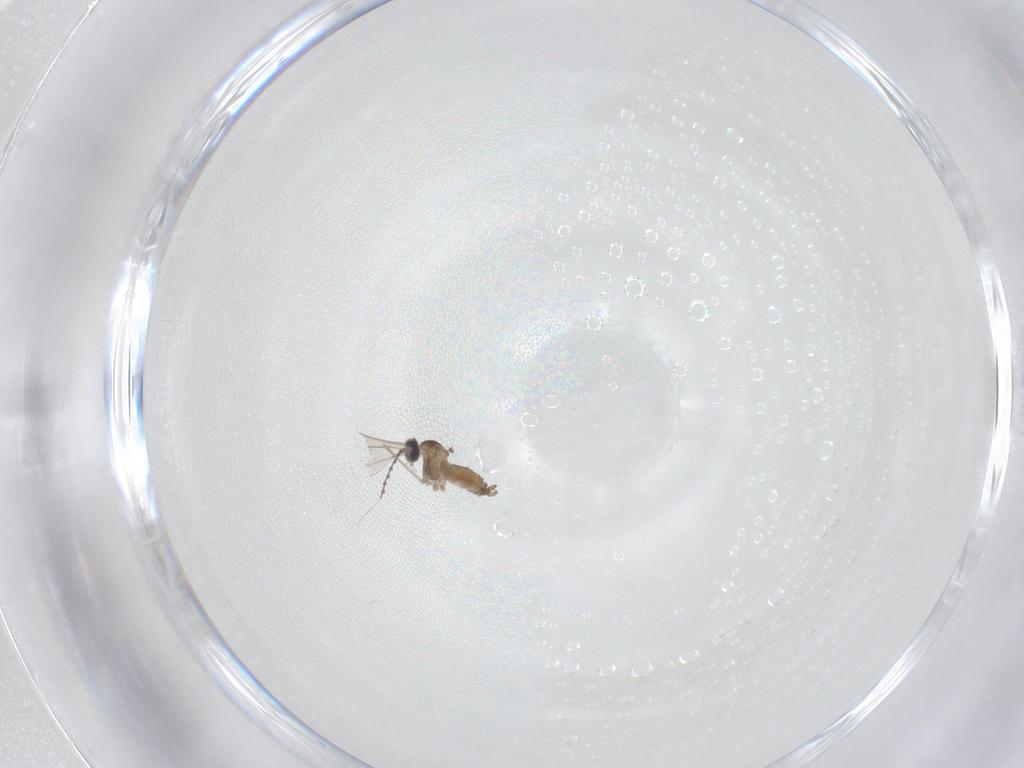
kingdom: Animalia
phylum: Arthropoda
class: Insecta
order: Diptera
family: Cecidomyiidae
